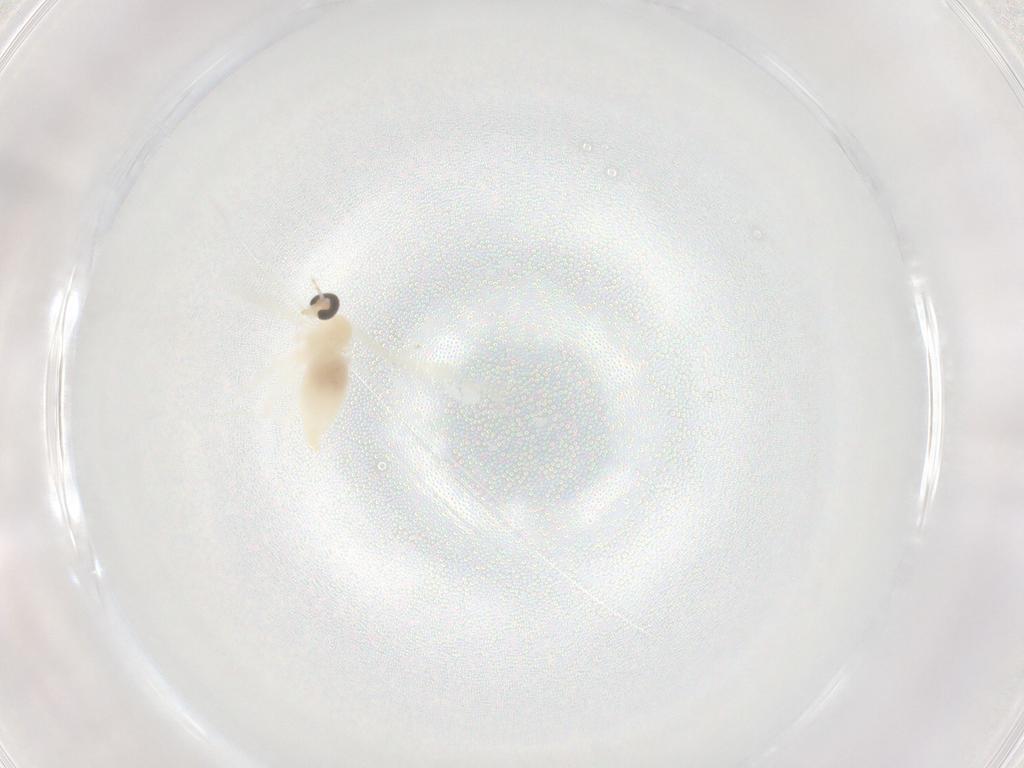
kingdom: Animalia
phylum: Arthropoda
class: Insecta
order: Diptera
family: Cecidomyiidae
